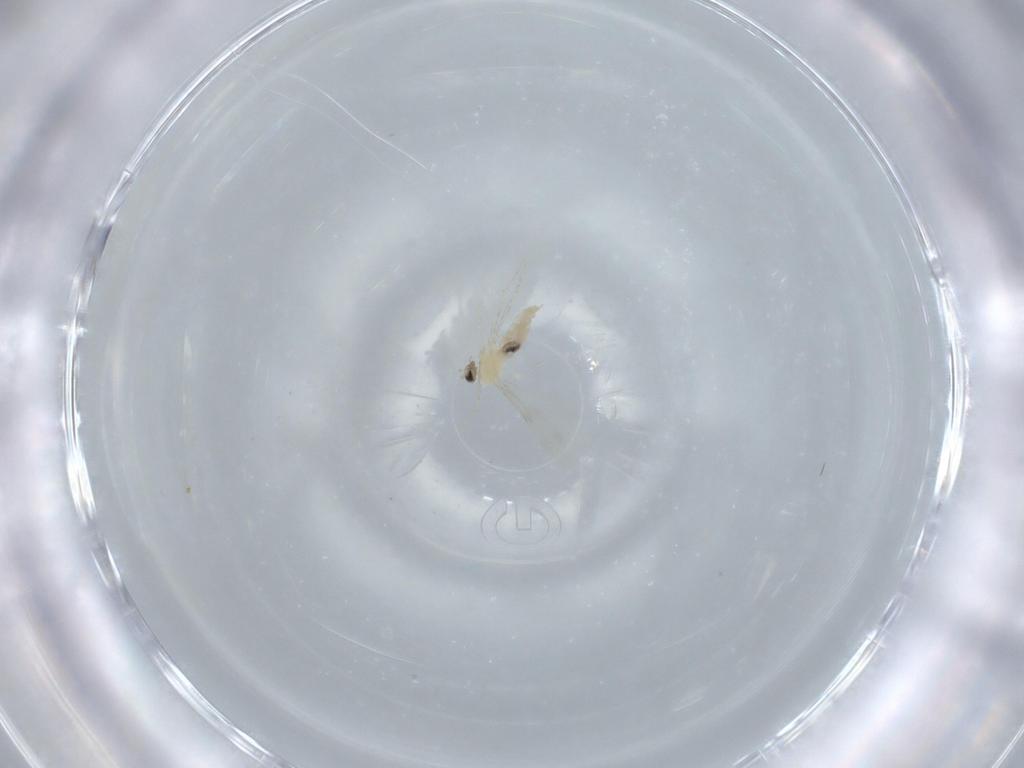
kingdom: Animalia
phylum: Arthropoda
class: Insecta
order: Diptera
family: Cecidomyiidae
